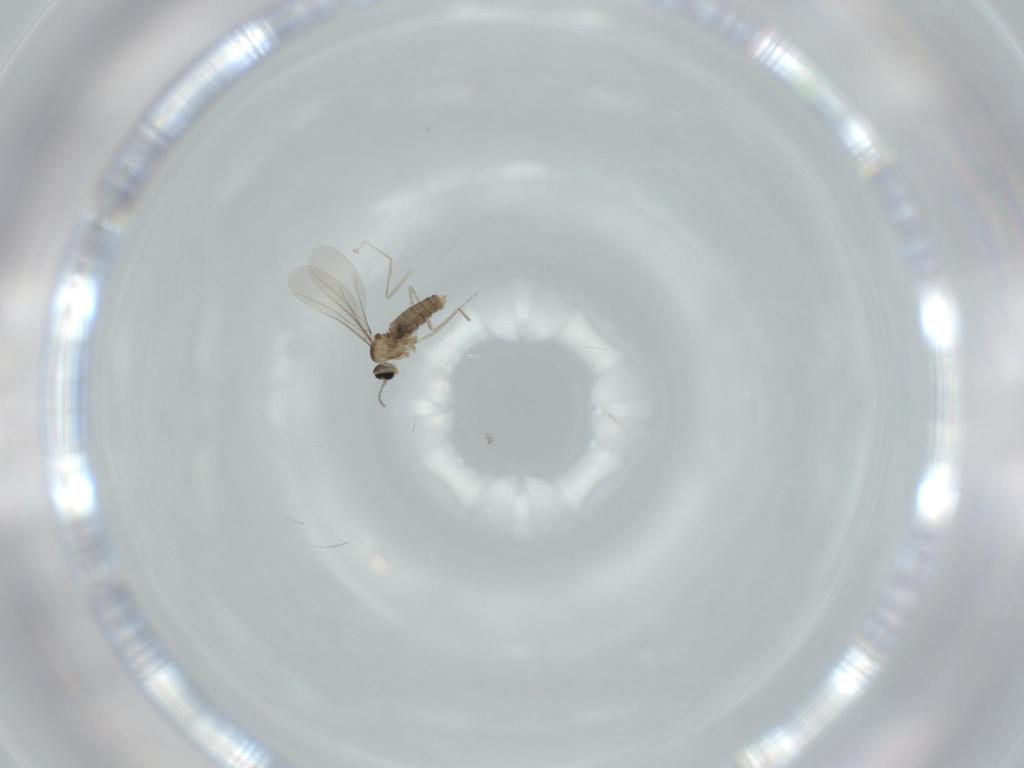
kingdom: Animalia
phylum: Arthropoda
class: Insecta
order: Diptera
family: Cecidomyiidae
